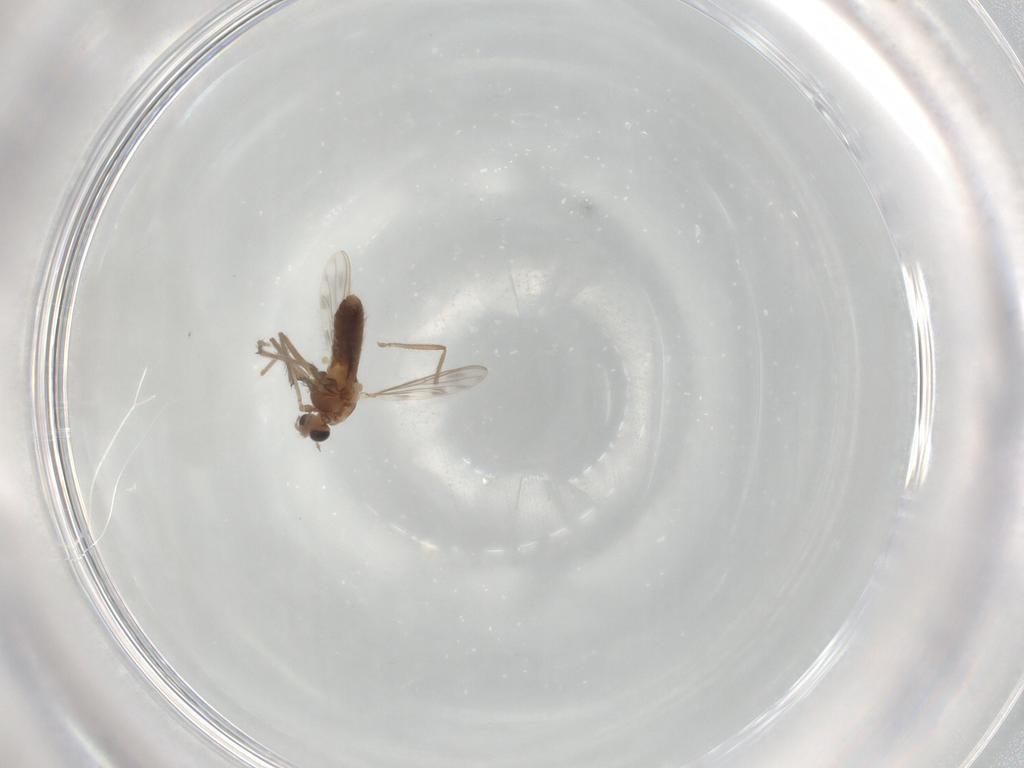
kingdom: Animalia
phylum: Arthropoda
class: Insecta
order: Diptera
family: Chironomidae
